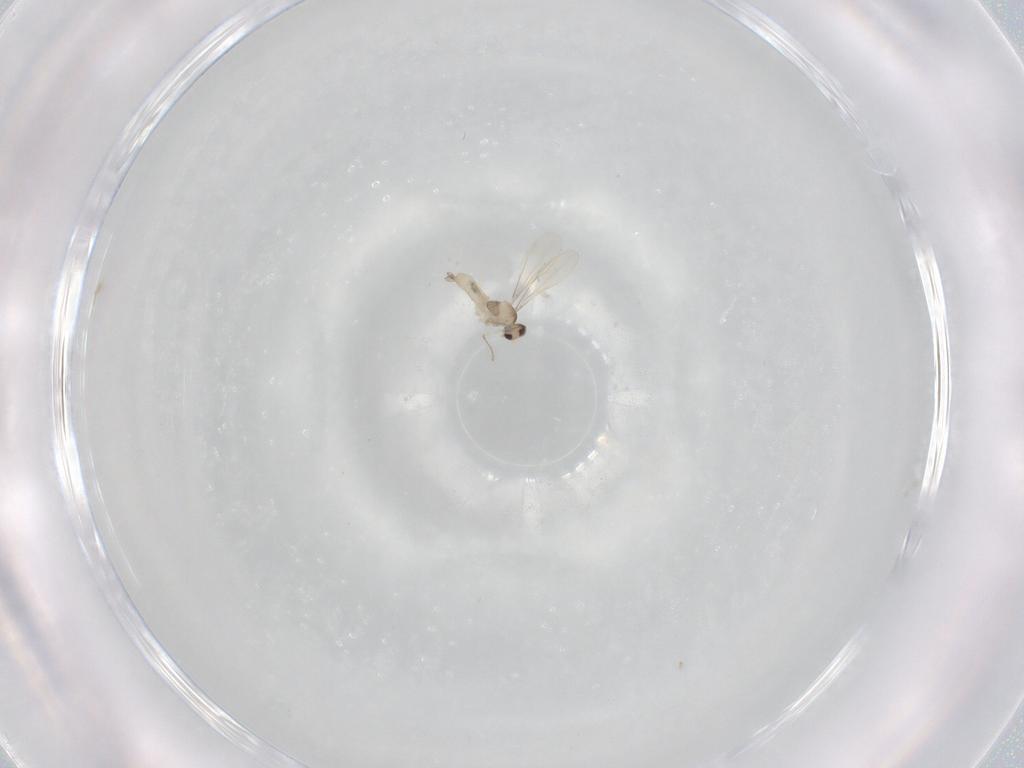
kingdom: Animalia
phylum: Arthropoda
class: Insecta
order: Diptera
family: Cecidomyiidae
